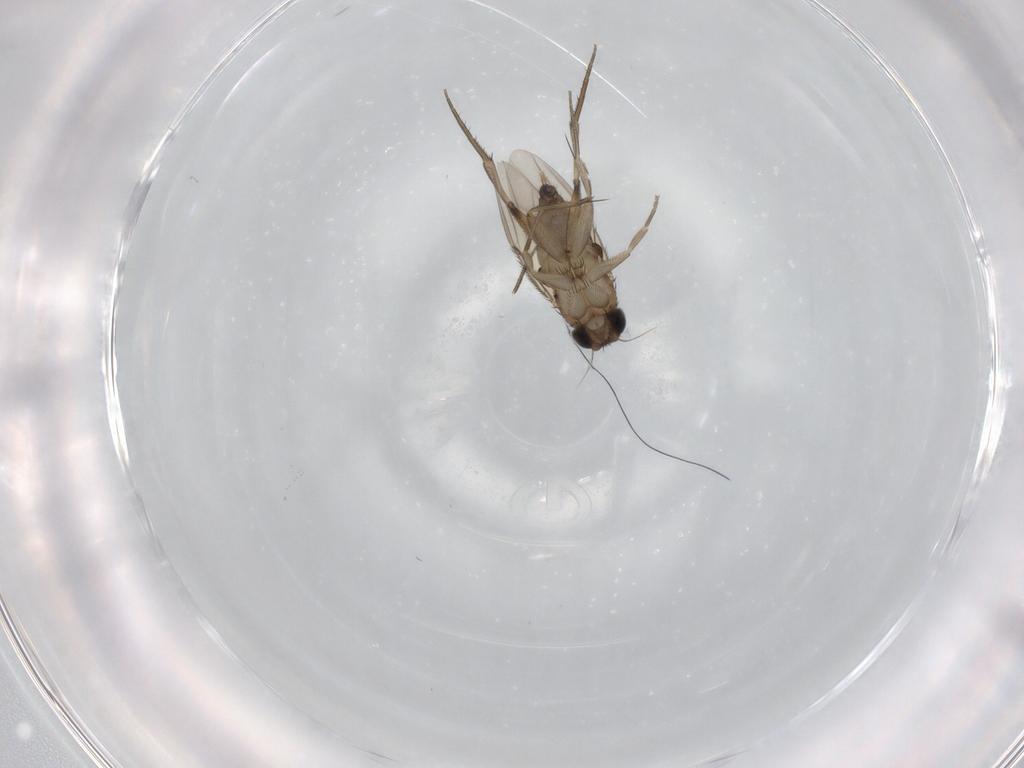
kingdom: Animalia
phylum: Arthropoda
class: Insecta
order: Diptera
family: Phoridae
